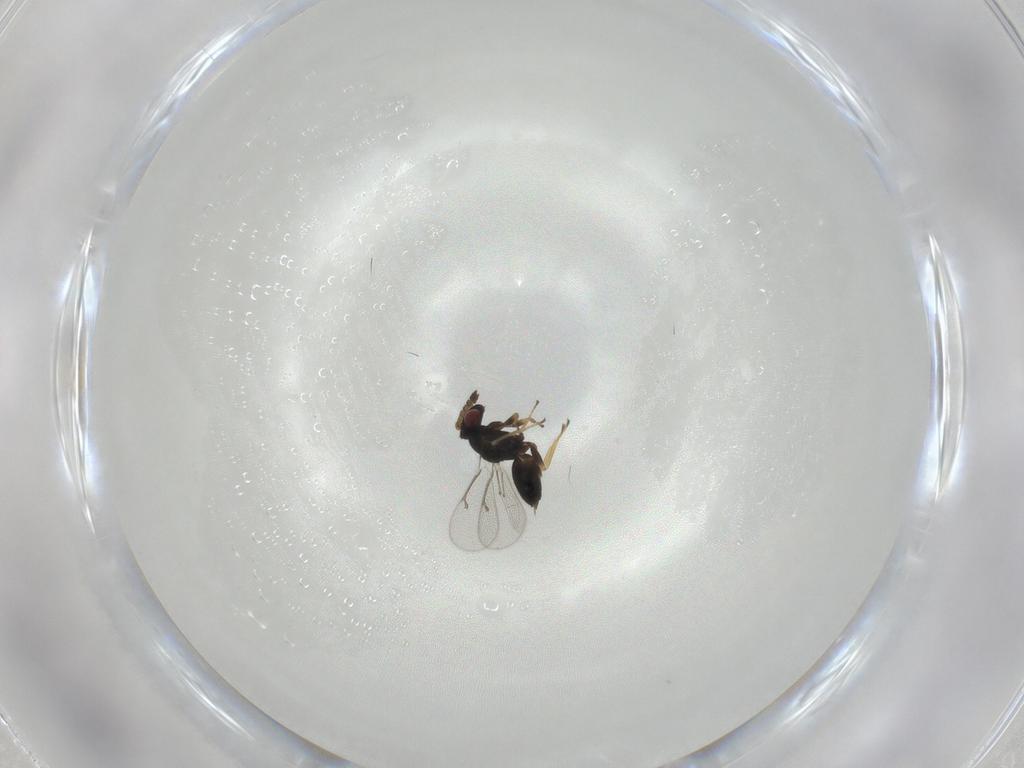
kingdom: Animalia
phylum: Arthropoda
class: Insecta
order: Hymenoptera
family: Eulophidae
